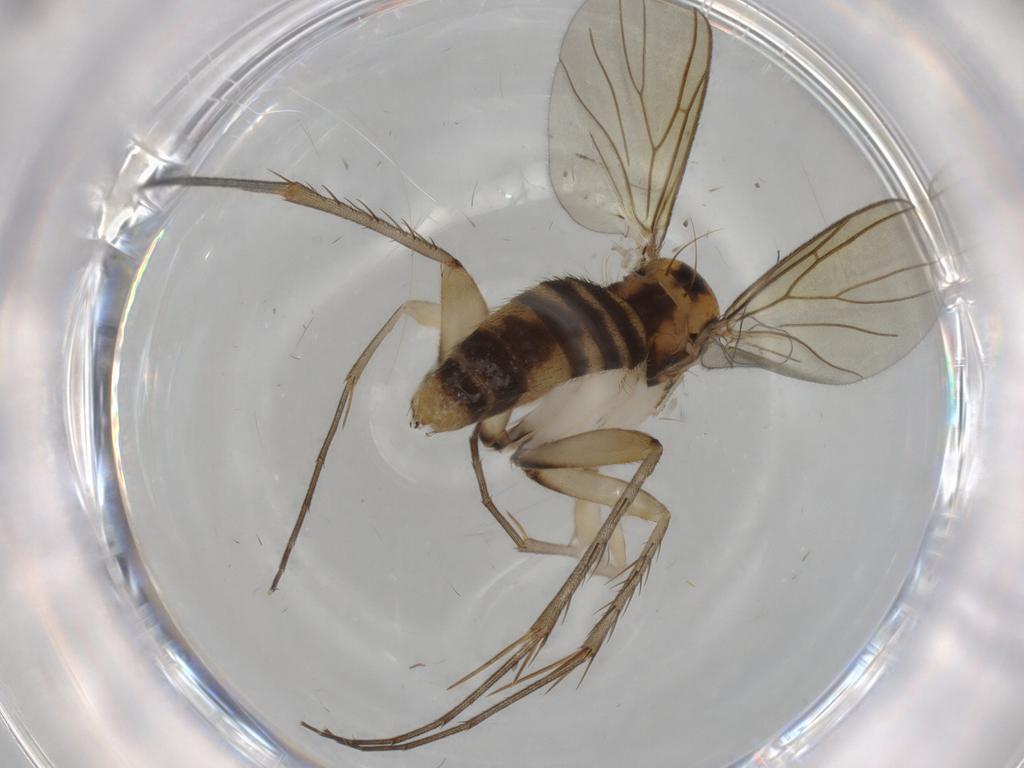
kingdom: Animalia
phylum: Arthropoda
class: Insecta
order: Diptera
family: Mycetophilidae
